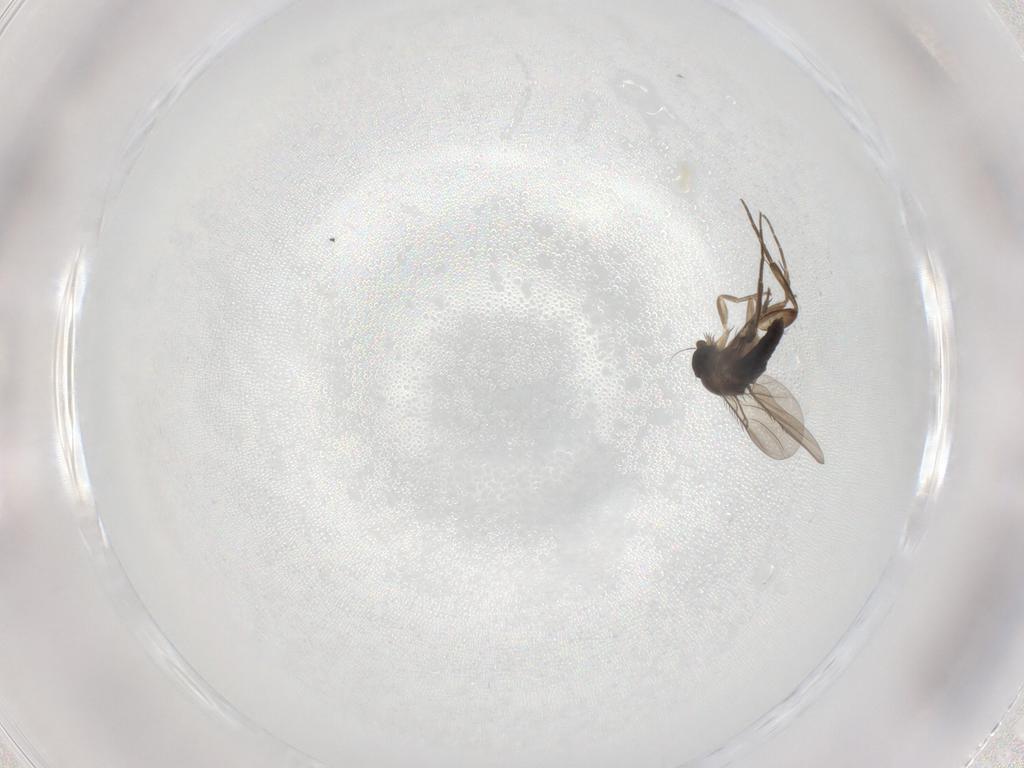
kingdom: Animalia
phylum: Arthropoda
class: Insecta
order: Diptera
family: Phoridae
